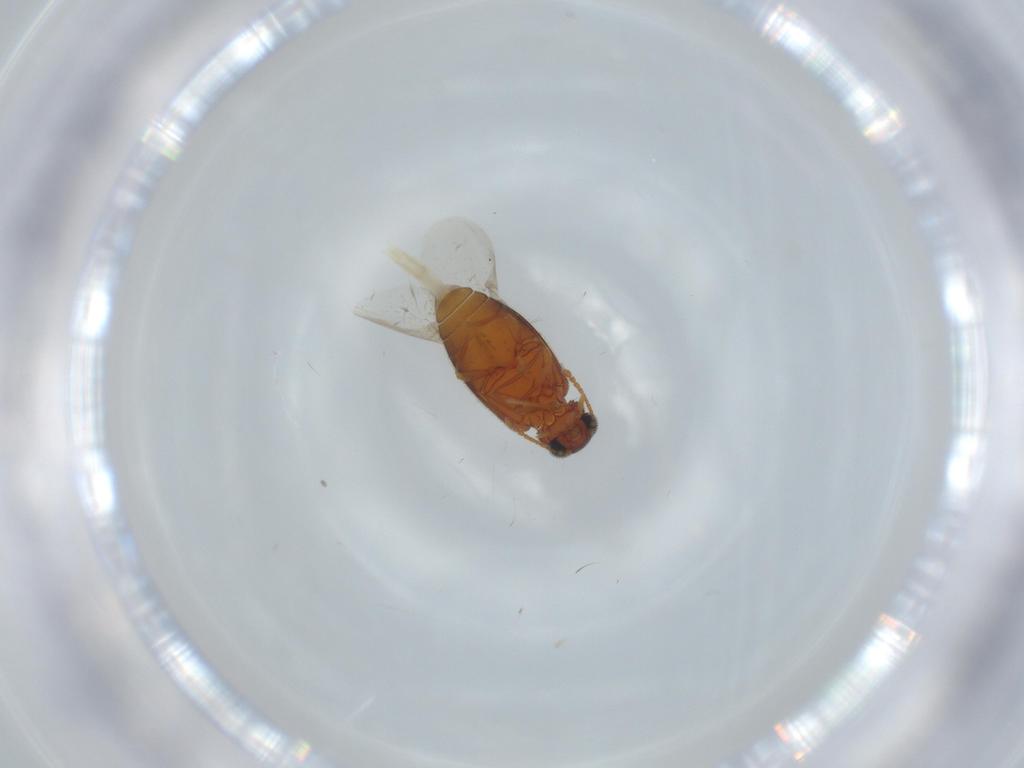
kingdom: Animalia
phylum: Arthropoda
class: Insecta
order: Coleoptera
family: Aderidae
